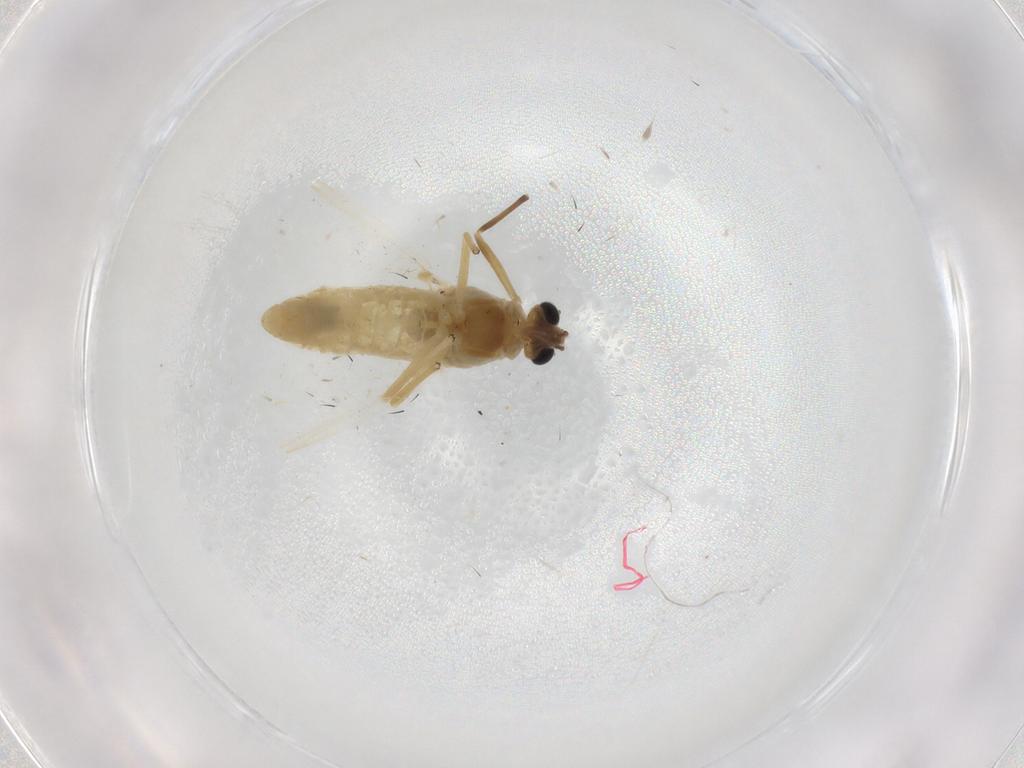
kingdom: Animalia
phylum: Arthropoda
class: Insecta
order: Diptera
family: Chironomidae
